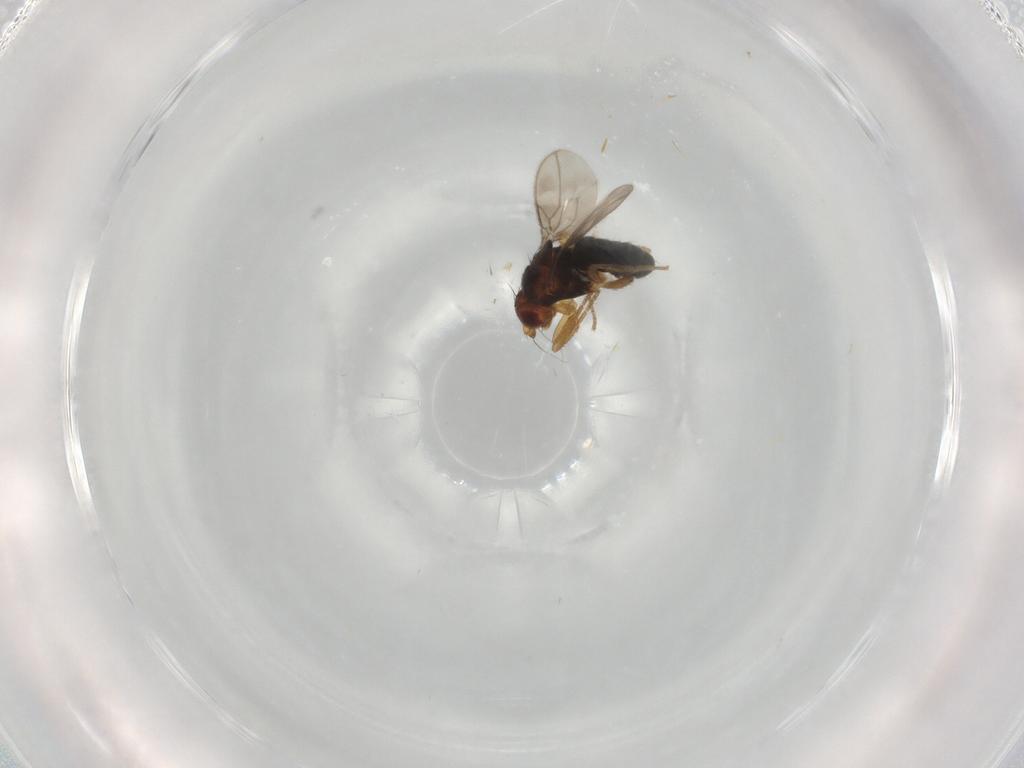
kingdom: Animalia
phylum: Arthropoda
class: Insecta
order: Diptera
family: Sphaeroceridae
